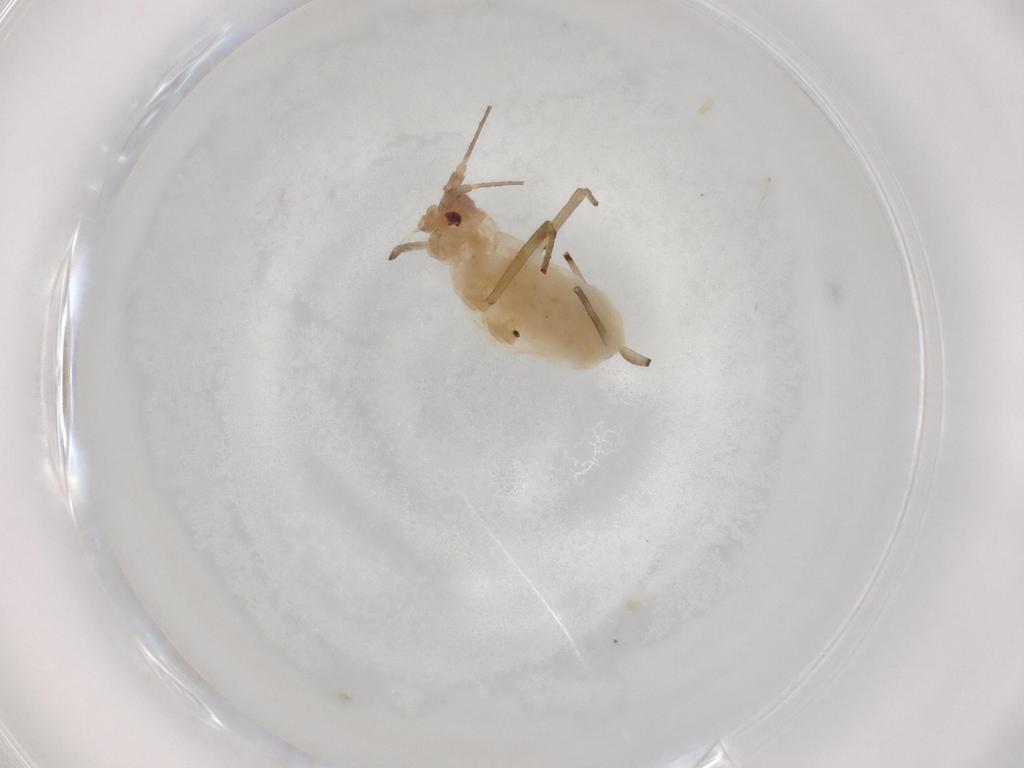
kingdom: Animalia
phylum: Arthropoda
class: Insecta
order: Hemiptera
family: Aphididae
